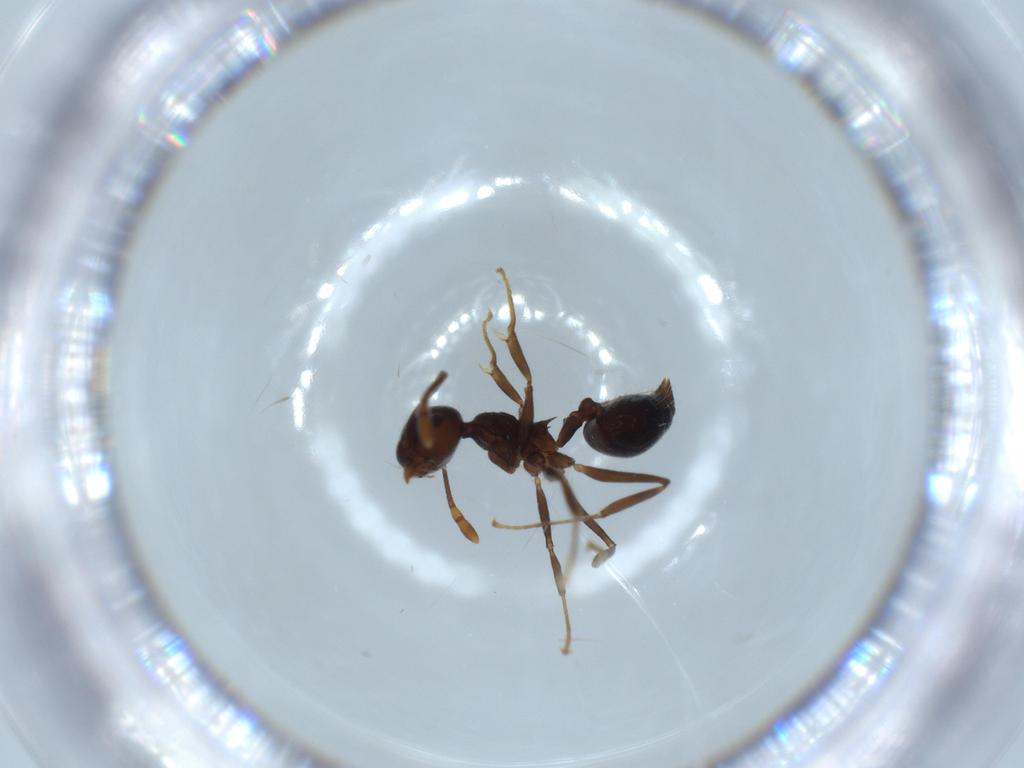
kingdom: Animalia
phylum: Arthropoda
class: Insecta
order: Hymenoptera
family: Formicidae
